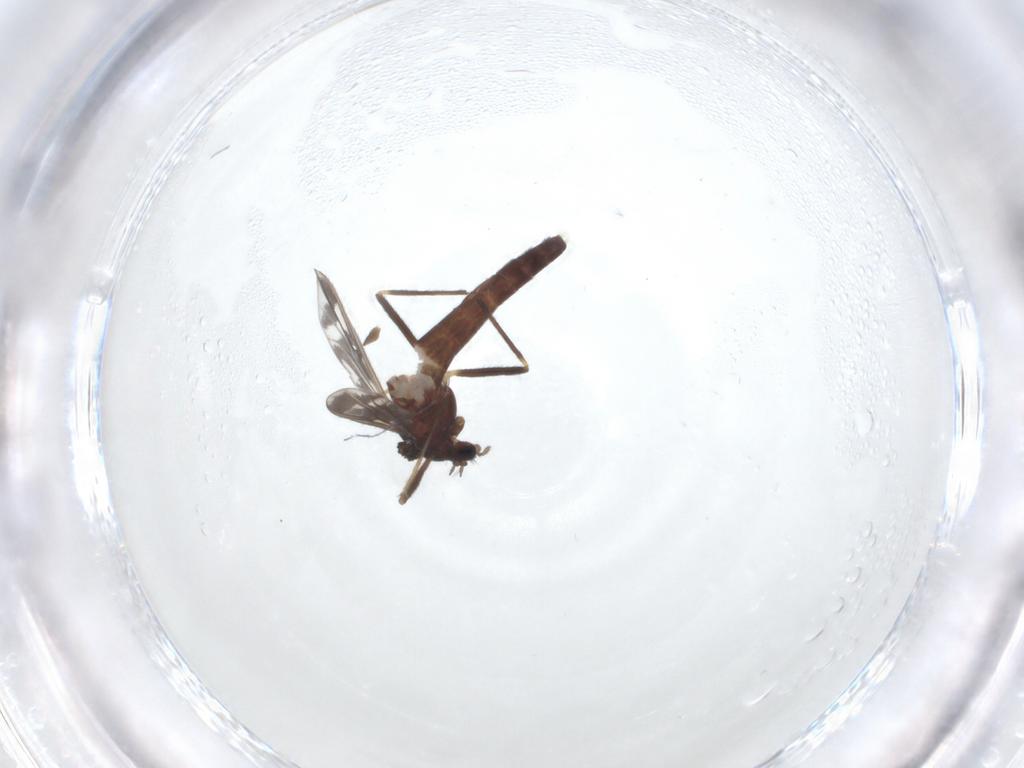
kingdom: Animalia
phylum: Arthropoda
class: Insecta
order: Diptera
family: Chironomidae
